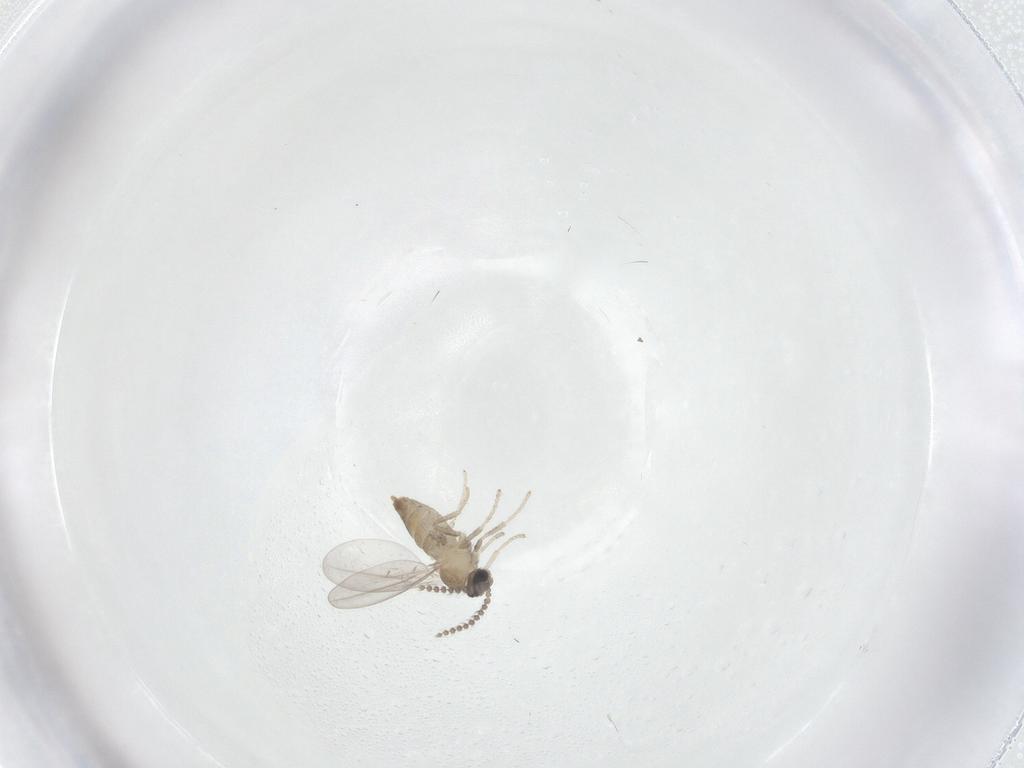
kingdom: Animalia
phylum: Arthropoda
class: Insecta
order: Diptera
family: Cecidomyiidae
